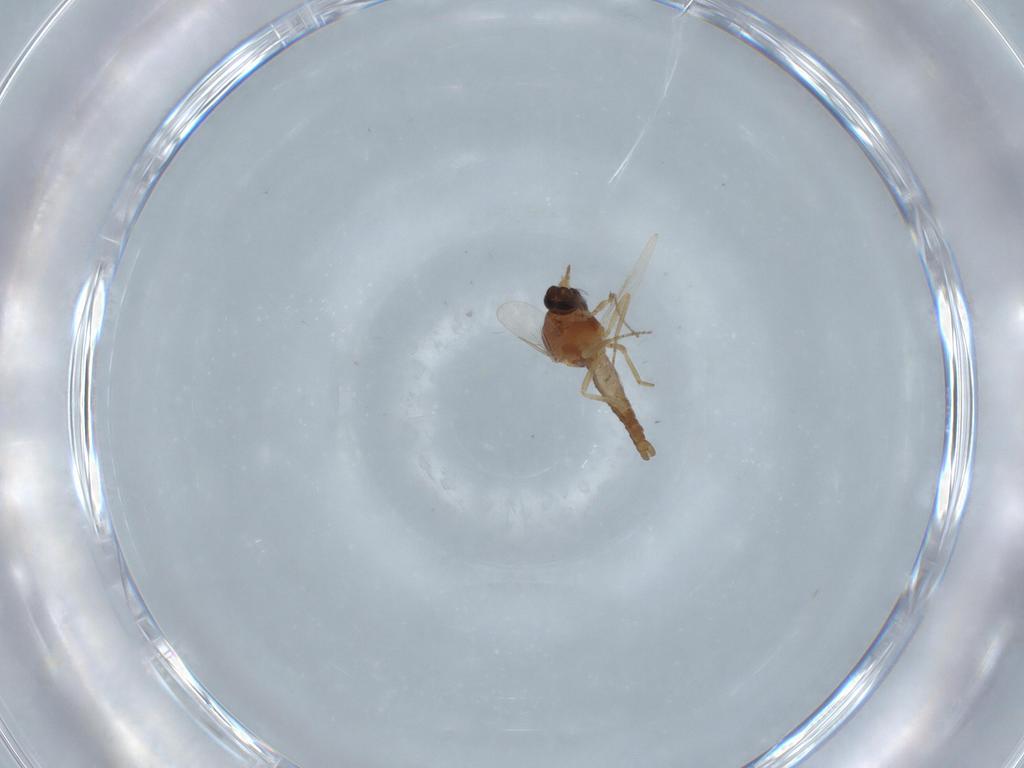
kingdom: Animalia
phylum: Arthropoda
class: Insecta
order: Diptera
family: Ceratopogonidae
